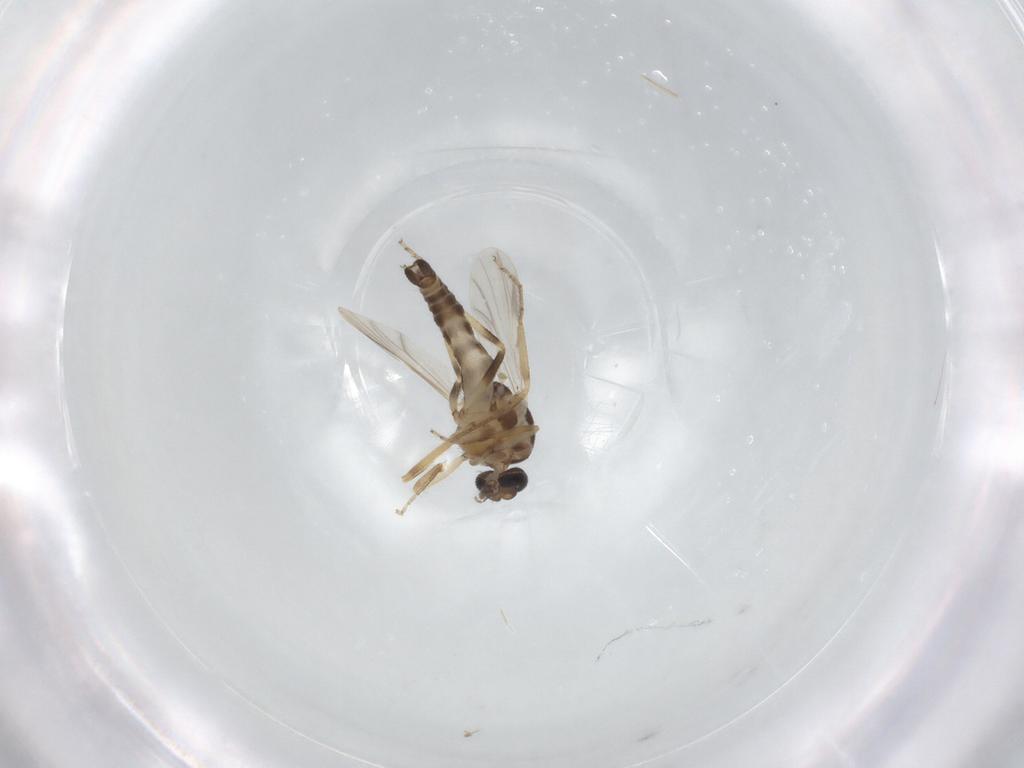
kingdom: Animalia
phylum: Arthropoda
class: Insecta
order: Diptera
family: Ceratopogonidae
